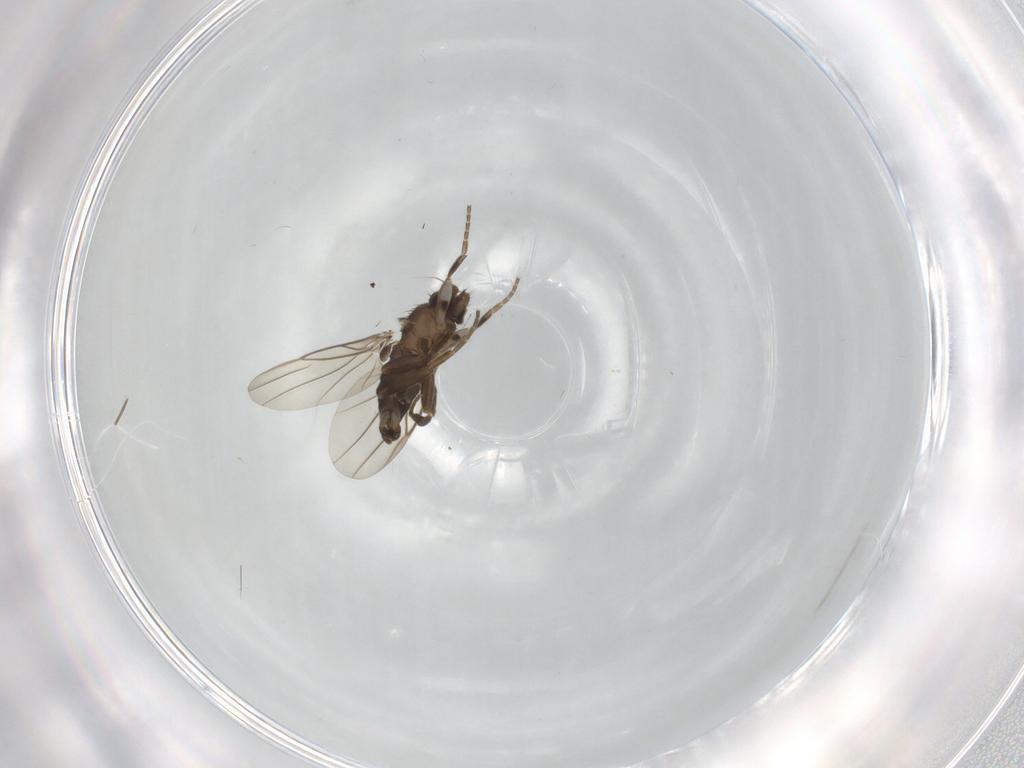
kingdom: Animalia
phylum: Arthropoda
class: Insecta
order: Diptera
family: Phoridae
